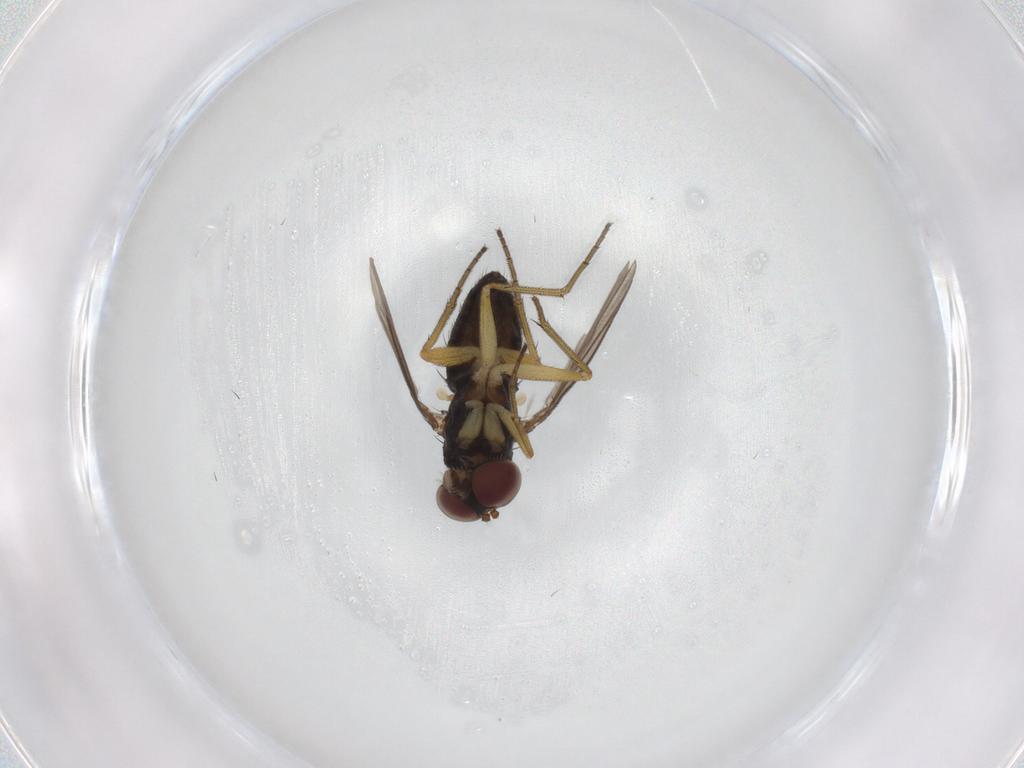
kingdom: Animalia
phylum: Arthropoda
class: Insecta
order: Diptera
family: Dolichopodidae
